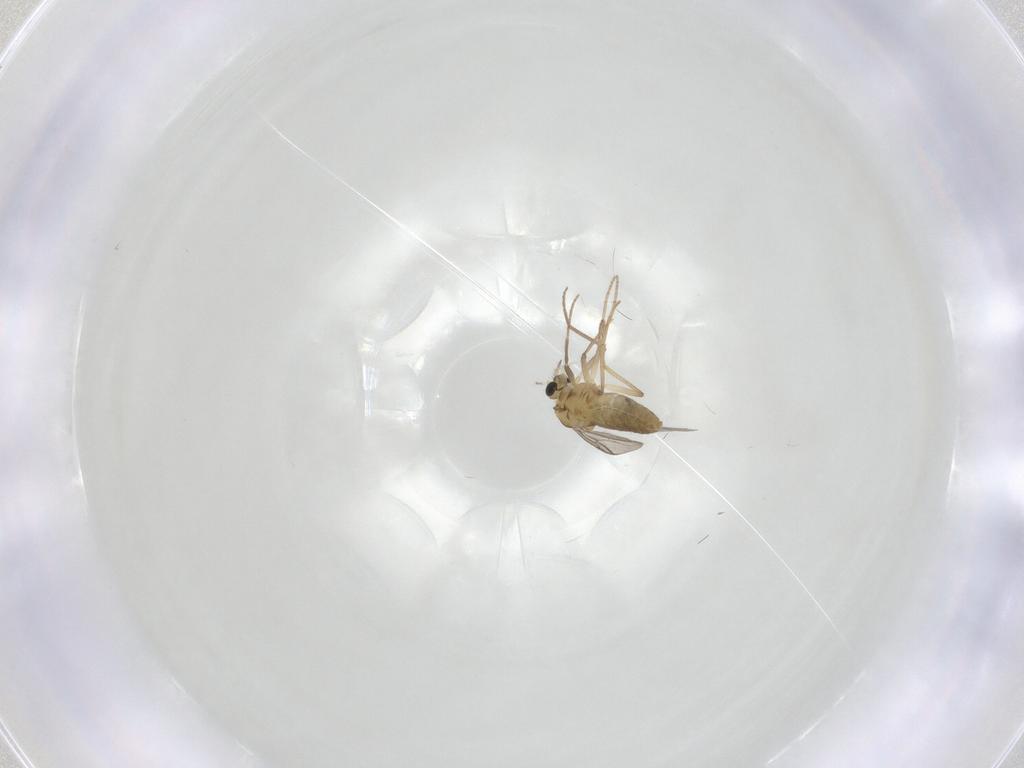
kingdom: Animalia
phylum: Arthropoda
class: Insecta
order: Diptera
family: Chironomidae
